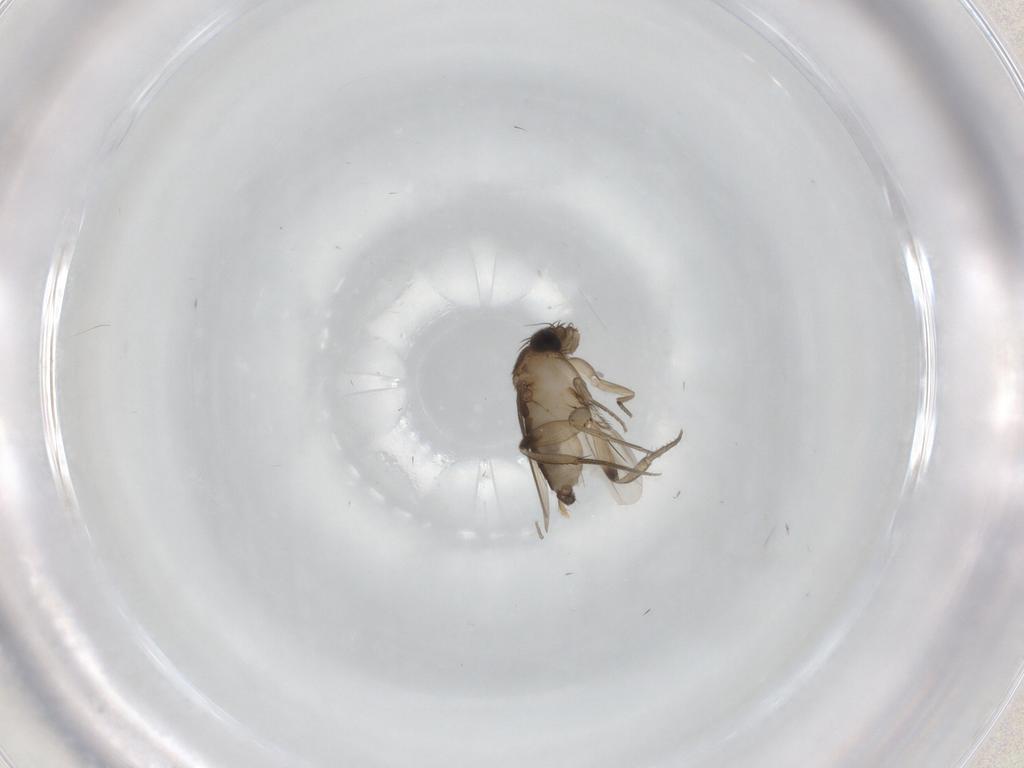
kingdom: Animalia
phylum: Arthropoda
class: Insecta
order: Diptera
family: Phoridae
